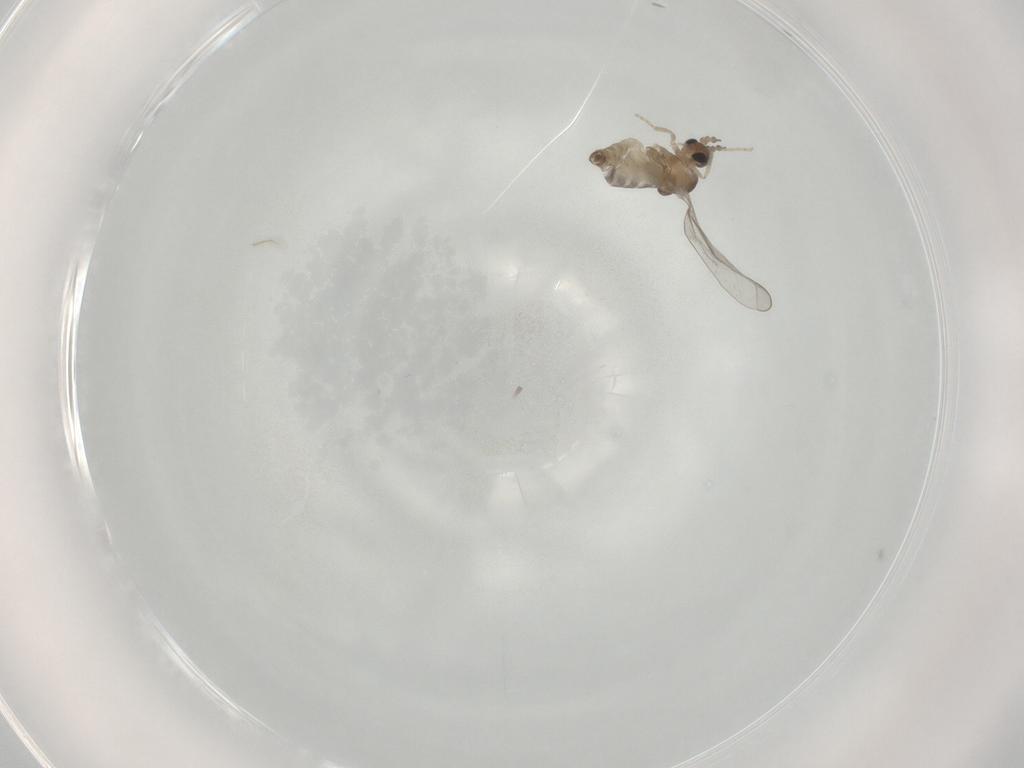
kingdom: Animalia
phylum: Arthropoda
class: Insecta
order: Diptera
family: Cecidomyiidae
